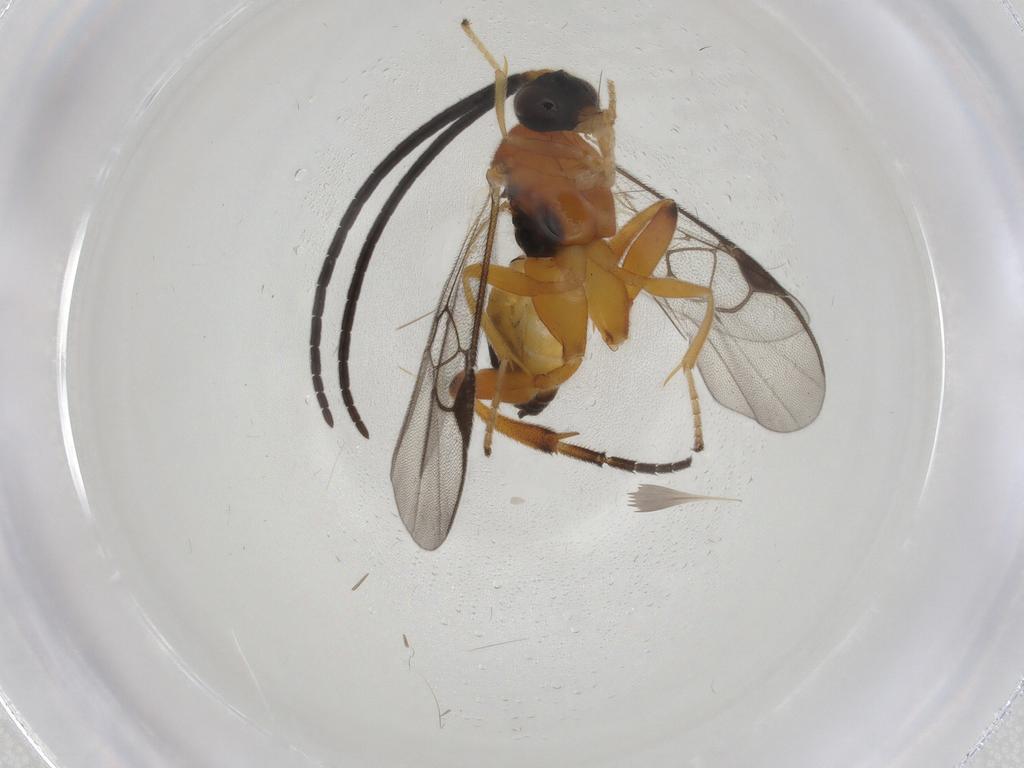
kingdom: Animalia
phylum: Arthropoda
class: Insecta
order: Hymenoptera
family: Braconidae
